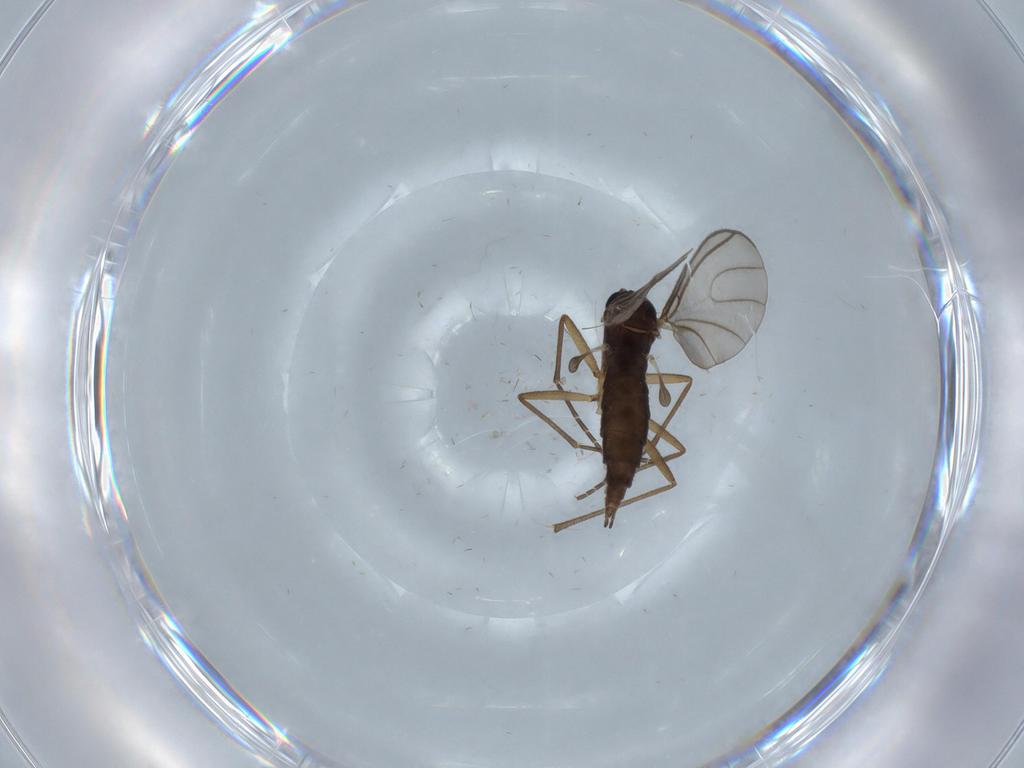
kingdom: Animalia
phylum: Arthropoda
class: Insecta
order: Diptera
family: Sciaridae
